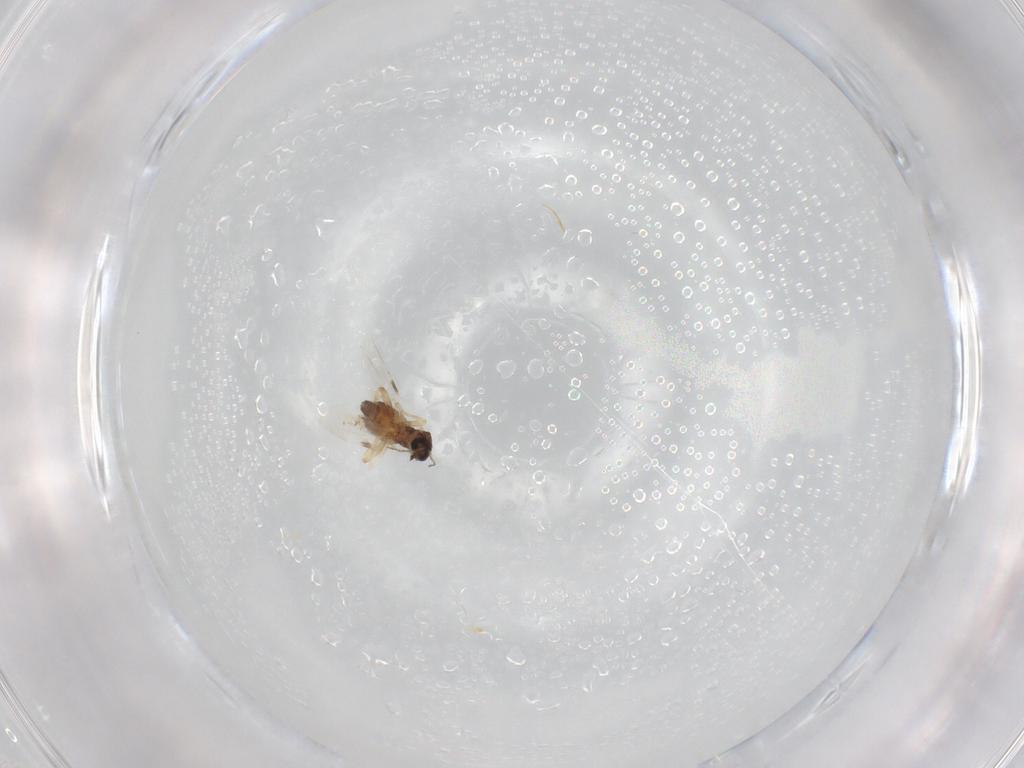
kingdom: Animalia
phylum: Arthropoda
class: Insecta
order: Diptera
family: Ceratopogonidae
